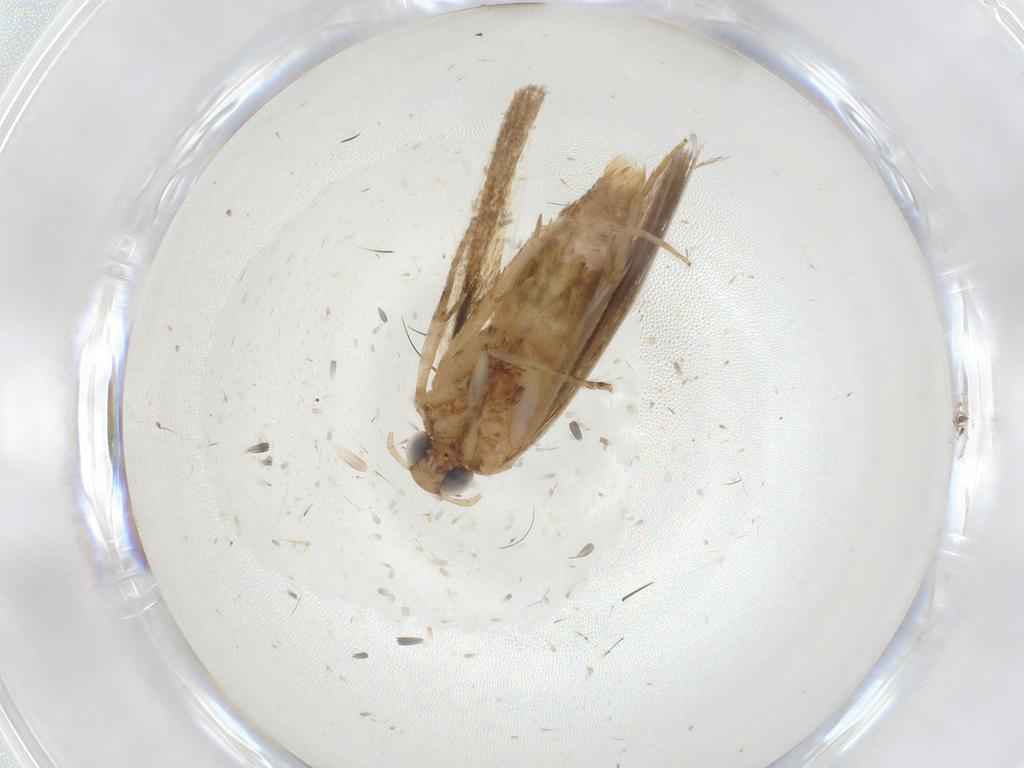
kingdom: Animalia
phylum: Arthropoda
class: Insecta
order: Lepidoptera
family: Gelechiidae
